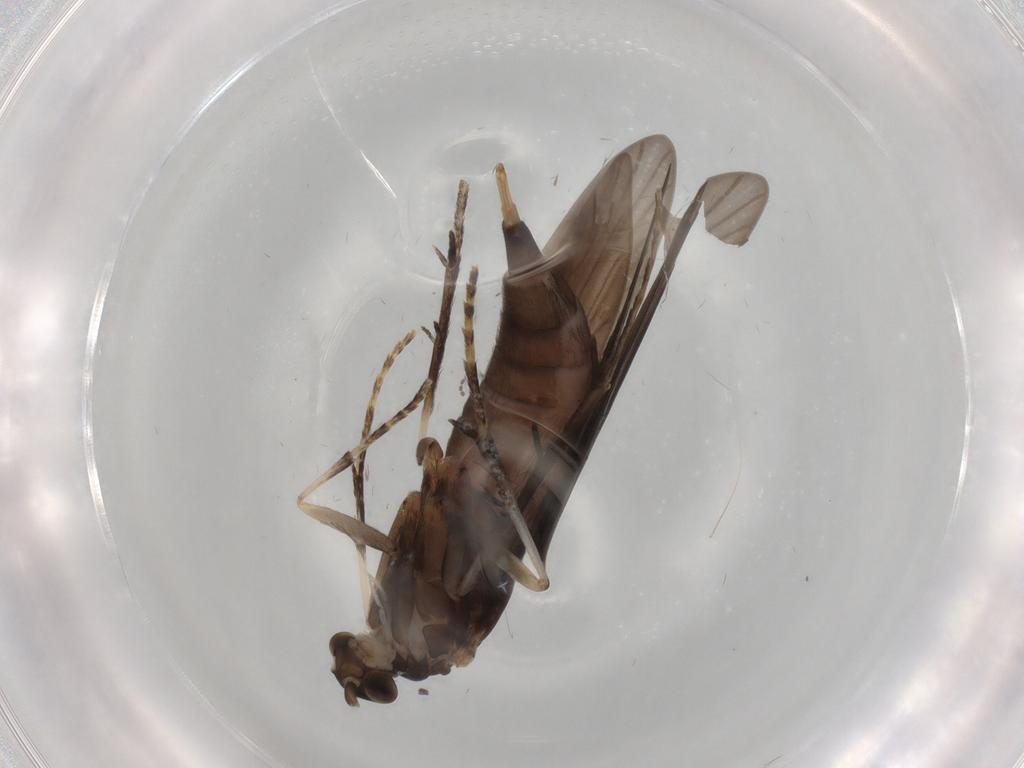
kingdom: Animalia
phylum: Arthropoda
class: Insecta
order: Trichoptera
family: Xiphocentronidae
